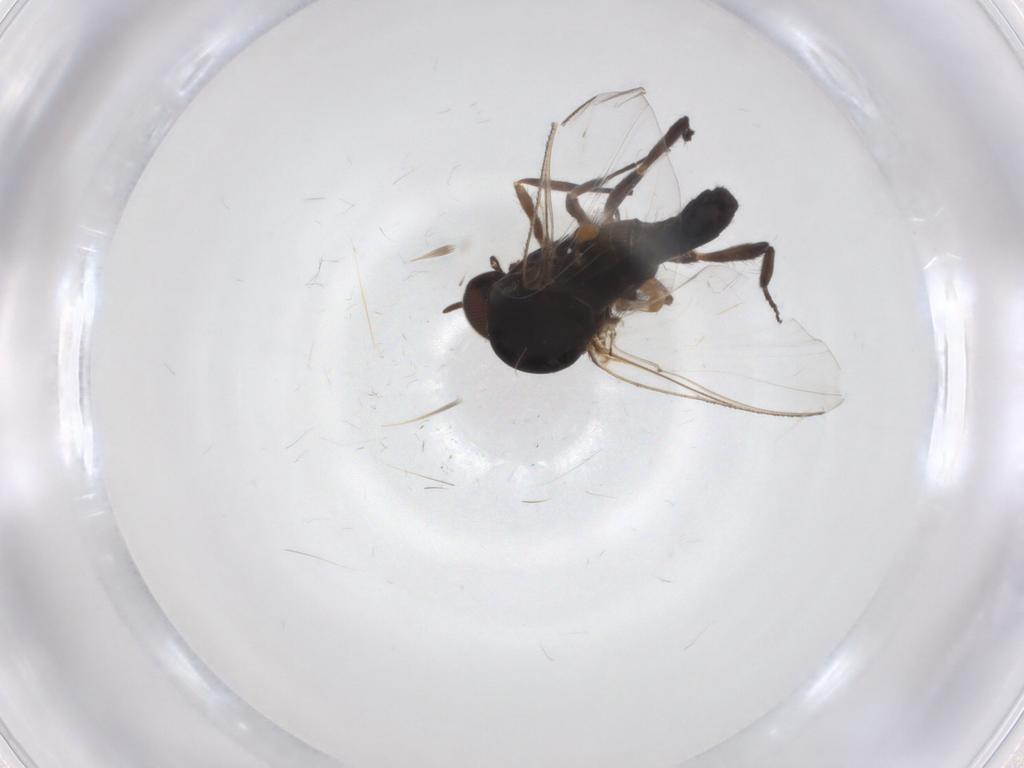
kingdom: Animalia
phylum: Arthropoda
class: Insecta
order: Diptera
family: Chironomidae
